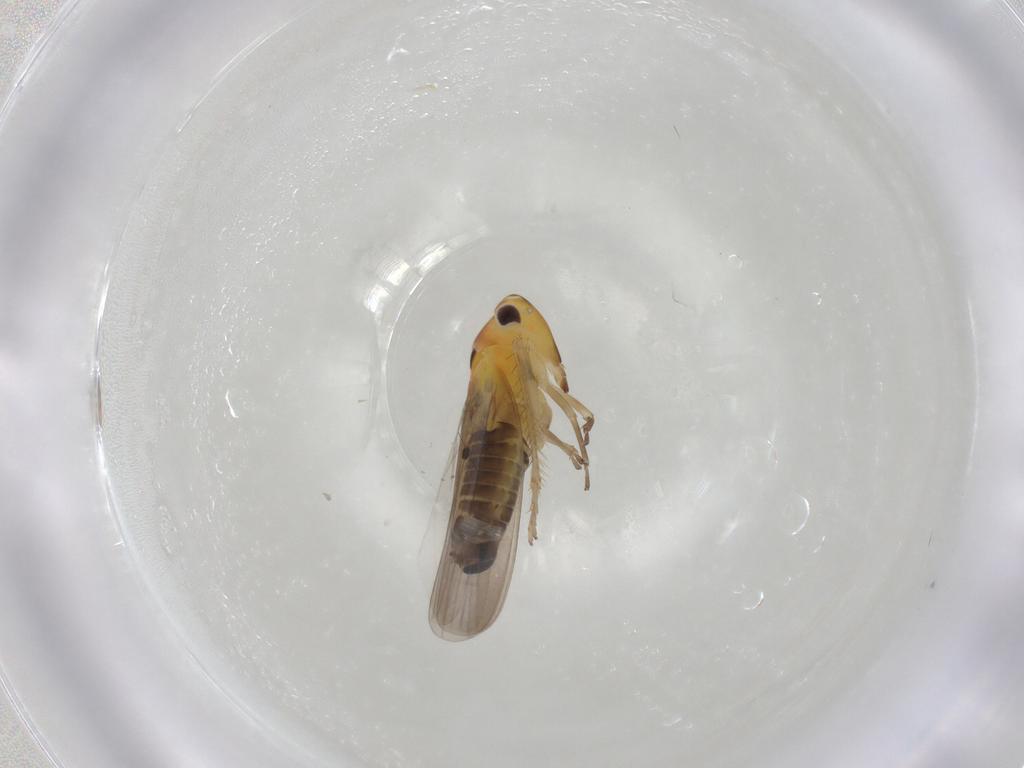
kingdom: Animalia
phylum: Arthropoda
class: Insecta
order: Hemiptera
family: Cicadellidae
